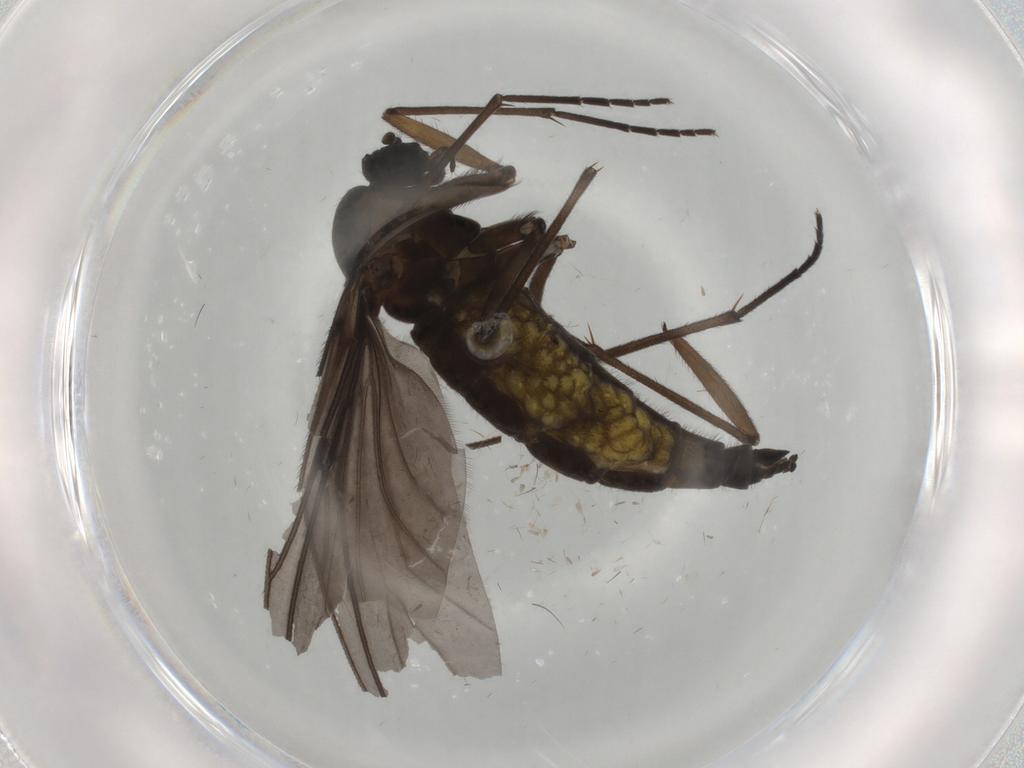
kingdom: Animalia
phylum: Arthropoda
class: Insecta
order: Diptera
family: Sciaridae
